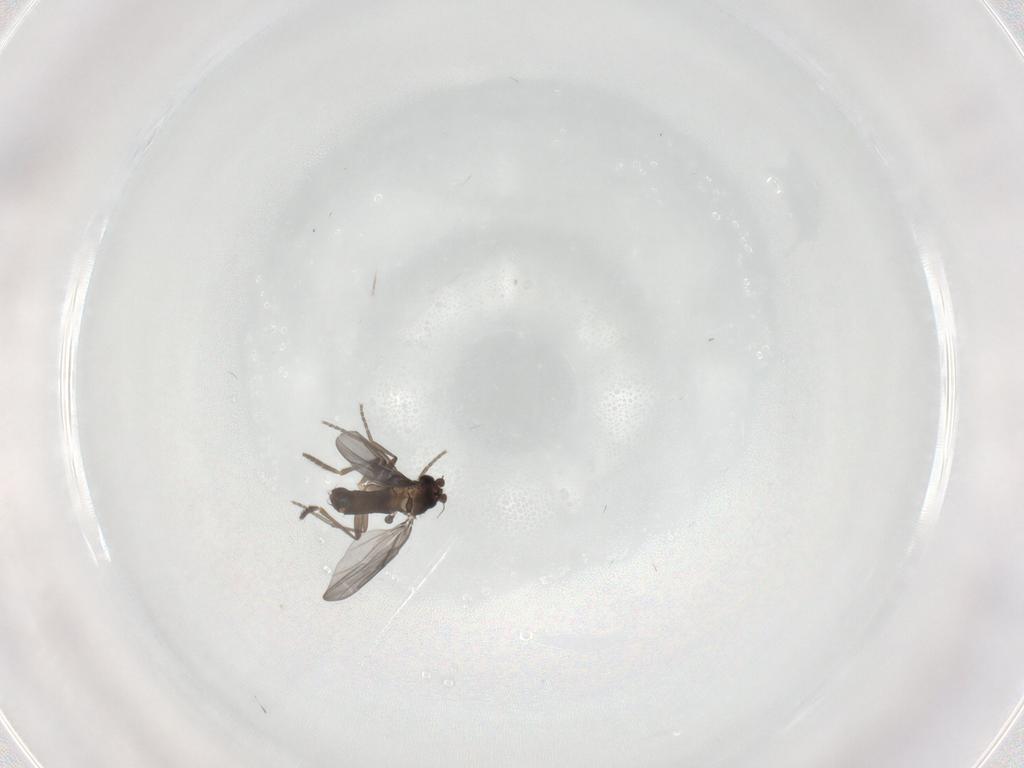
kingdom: Animalia
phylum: Arthropoda
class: Insecta
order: Diptera
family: Phoridae
